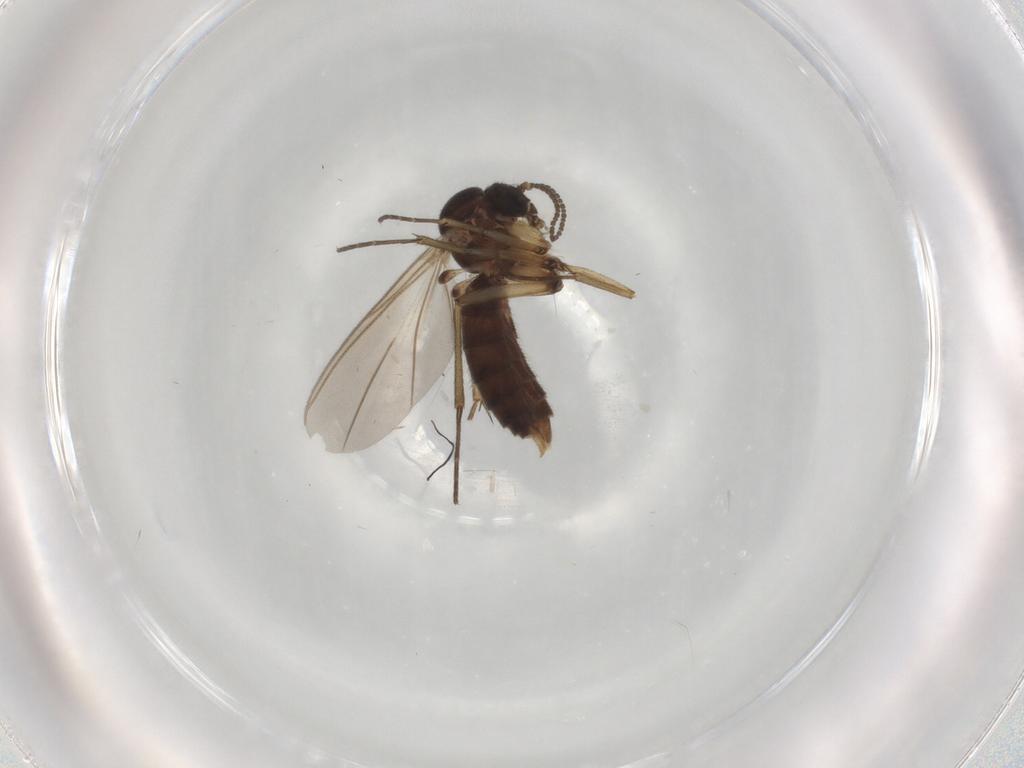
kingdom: Animalia
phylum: Arthropoda
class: Insecta
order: Diptera
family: Mycetophilidae
